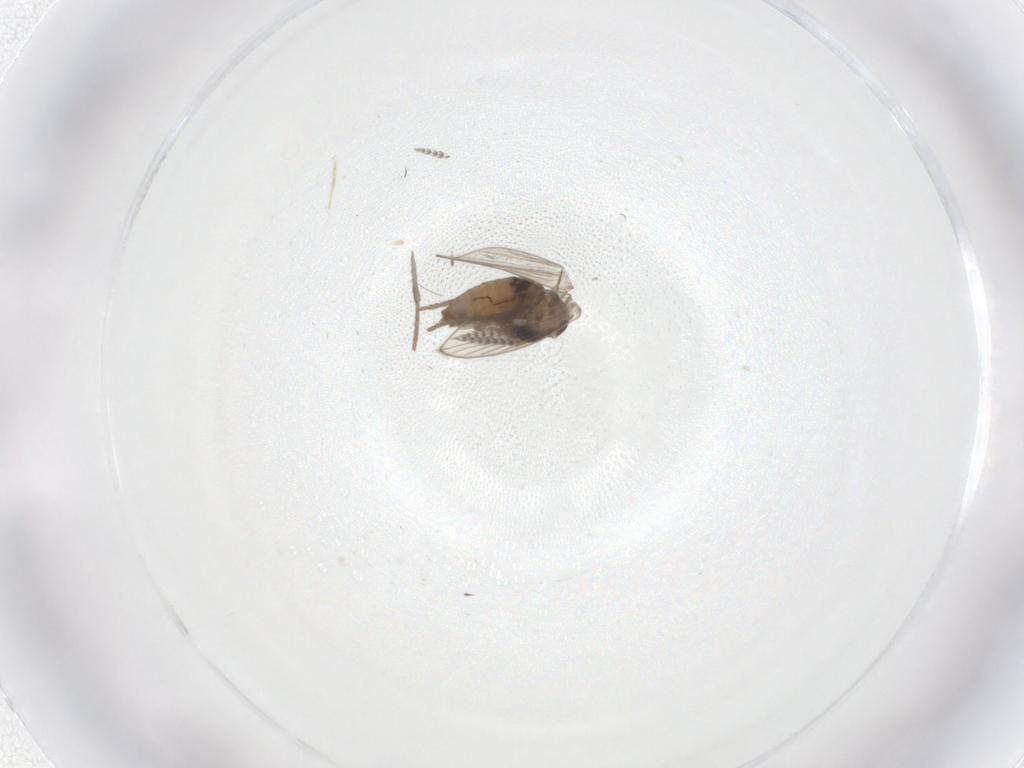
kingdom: Animalia
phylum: Arthropoda
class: Insecta
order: Diptera
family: Psychodidae
